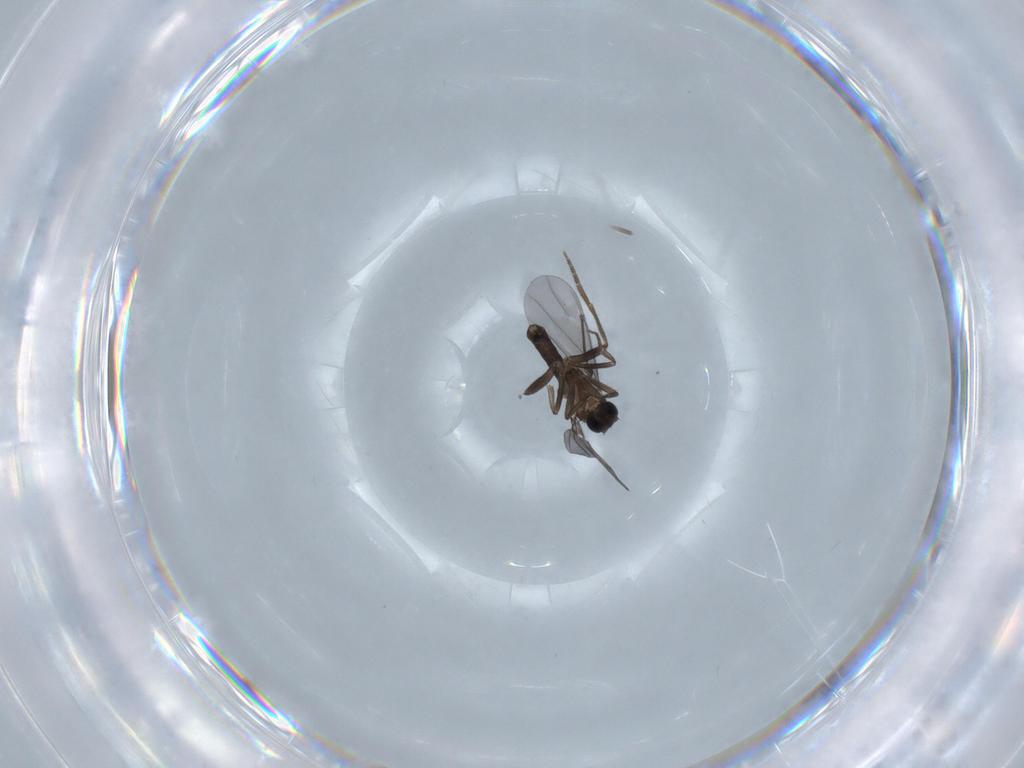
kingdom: Animalia
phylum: Arthropoda
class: Insecta
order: Diptera
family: Phoridae
